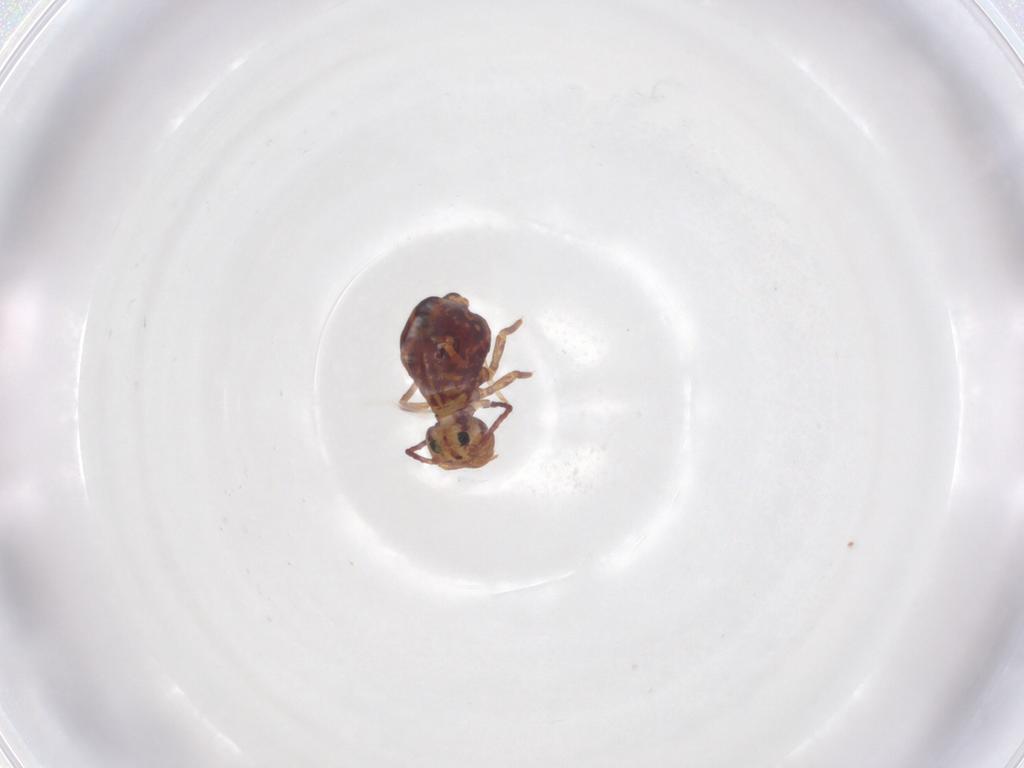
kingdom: Animalia
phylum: Arthropoda
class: Collembola
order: Symphypleona
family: Dicyrtomidae
